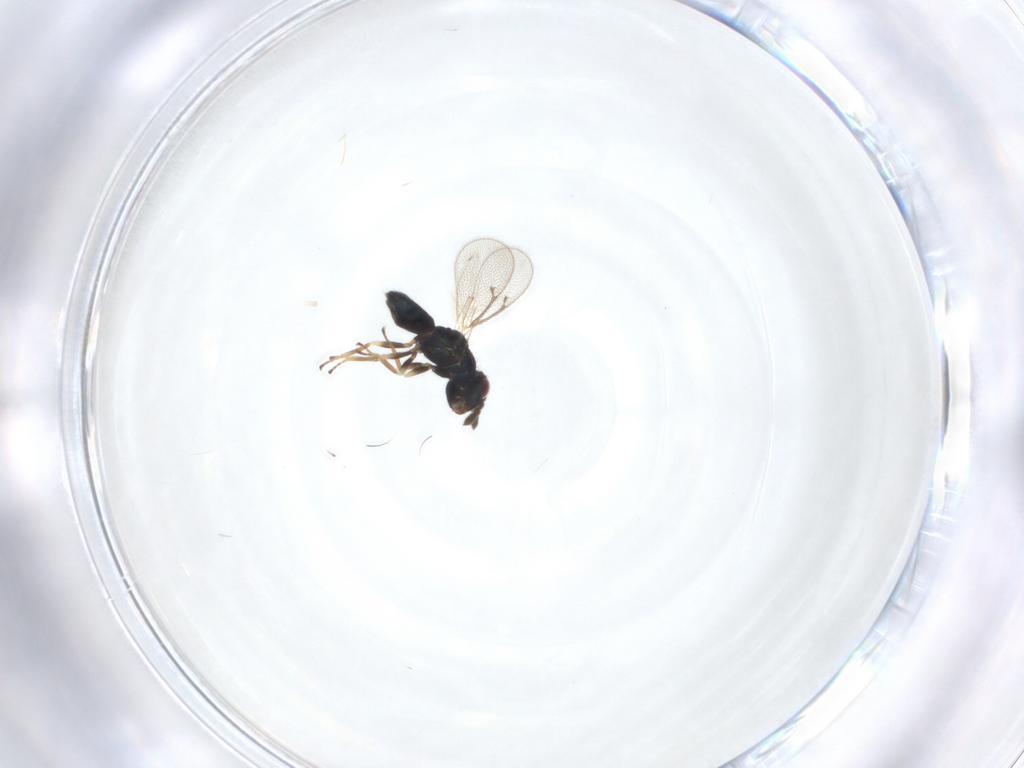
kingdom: Animalia
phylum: Arthropoda
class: Insecta
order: Hymenoptera
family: Eulophidae
